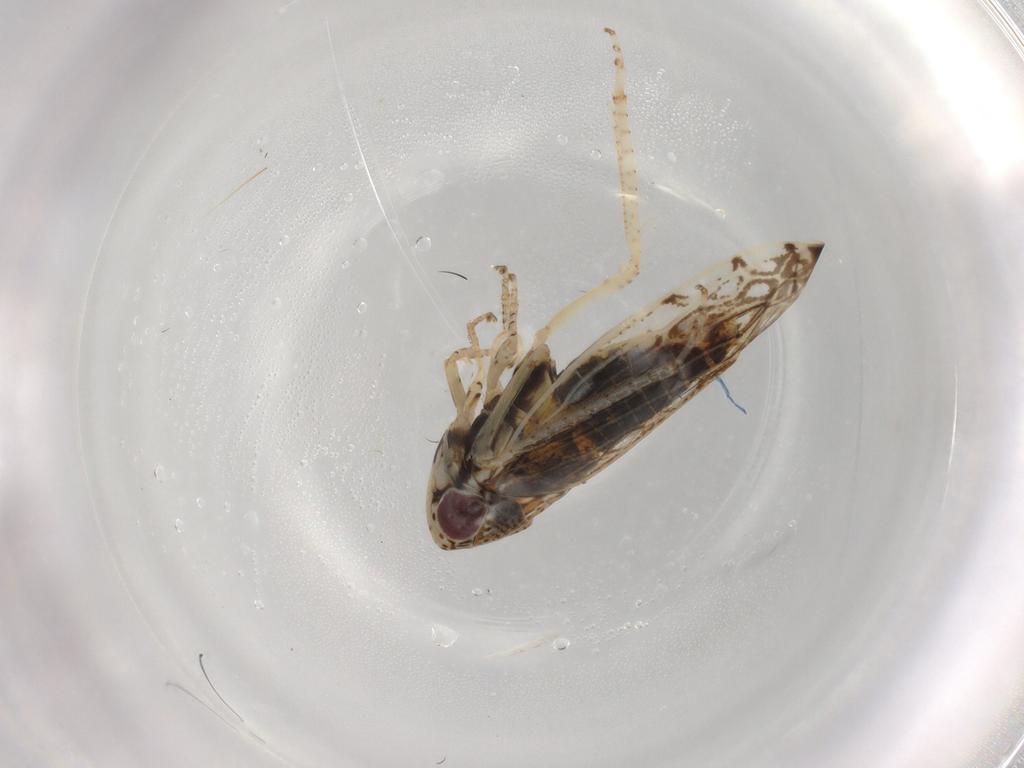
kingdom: Animalia
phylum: Arthropoda
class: Insecta
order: Hemiptera
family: Cicadellidae
